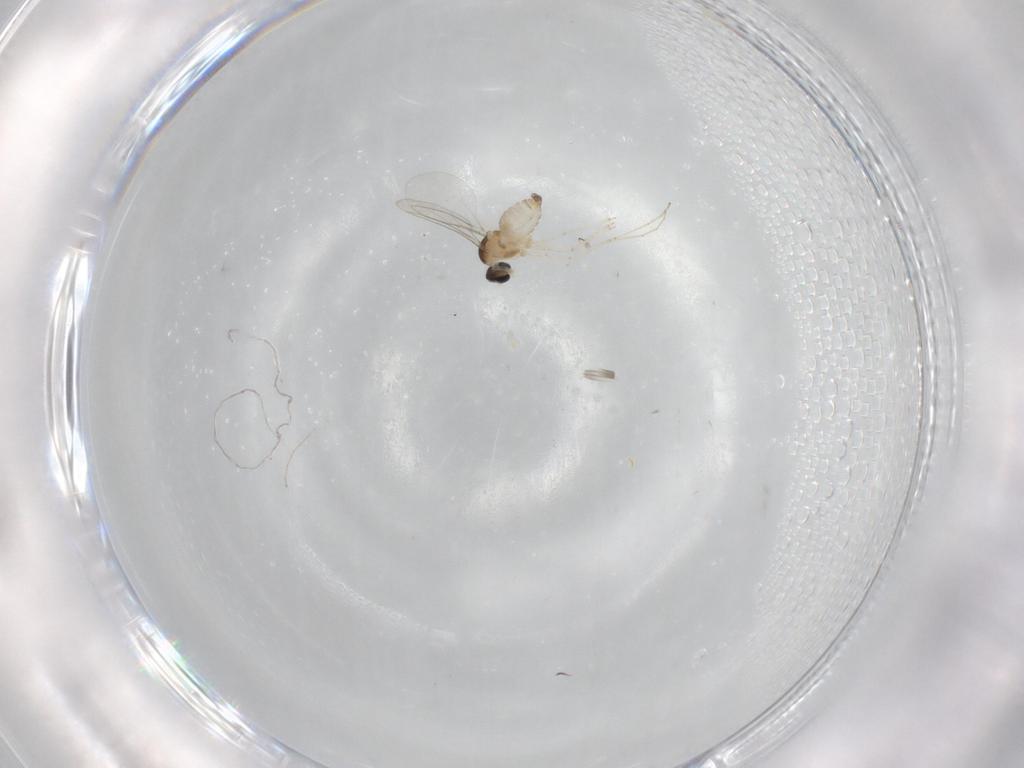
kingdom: Animalia
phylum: Arthropoda
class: Insecta
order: Diptera
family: Cecidomyiidae
